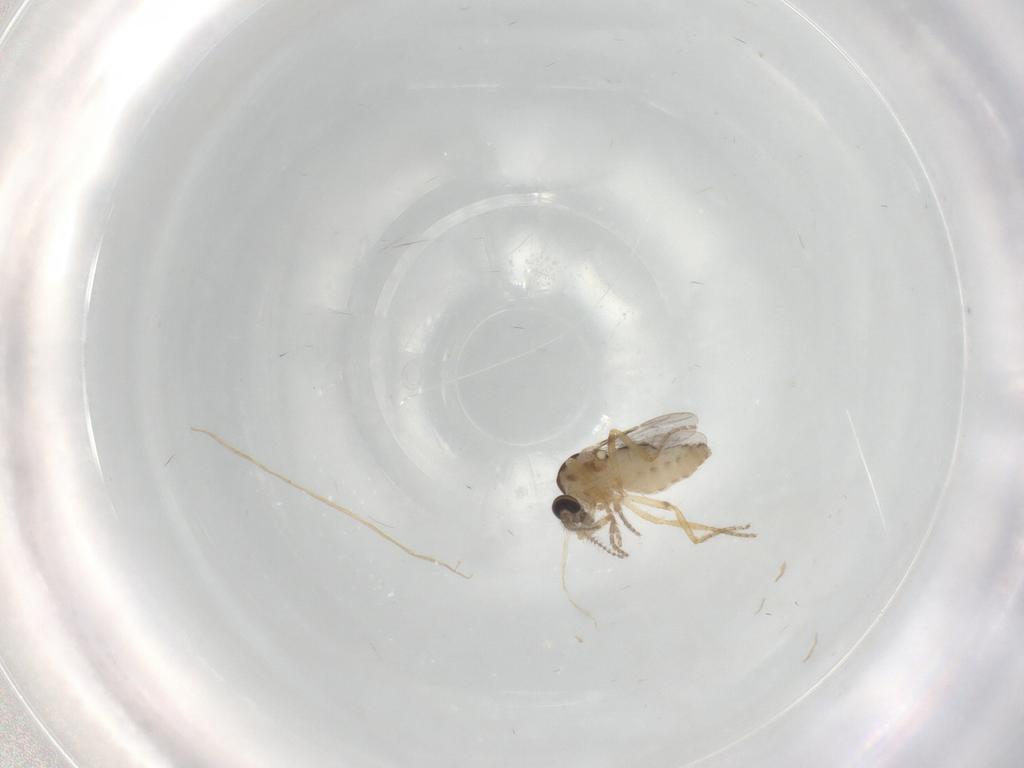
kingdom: Animalia
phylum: Arthropoda
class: Insecta
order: Diptera
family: Ceratopogonidae
